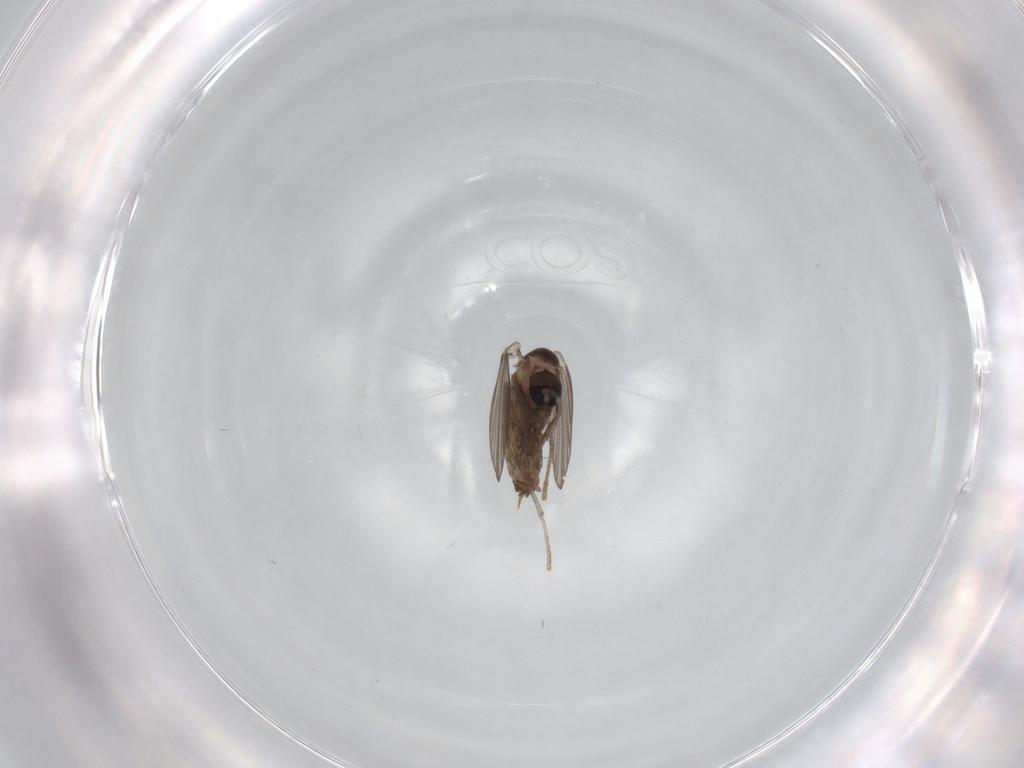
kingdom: Animalia
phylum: Arthropoda
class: Insecta
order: Diptera
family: Psychodidae
